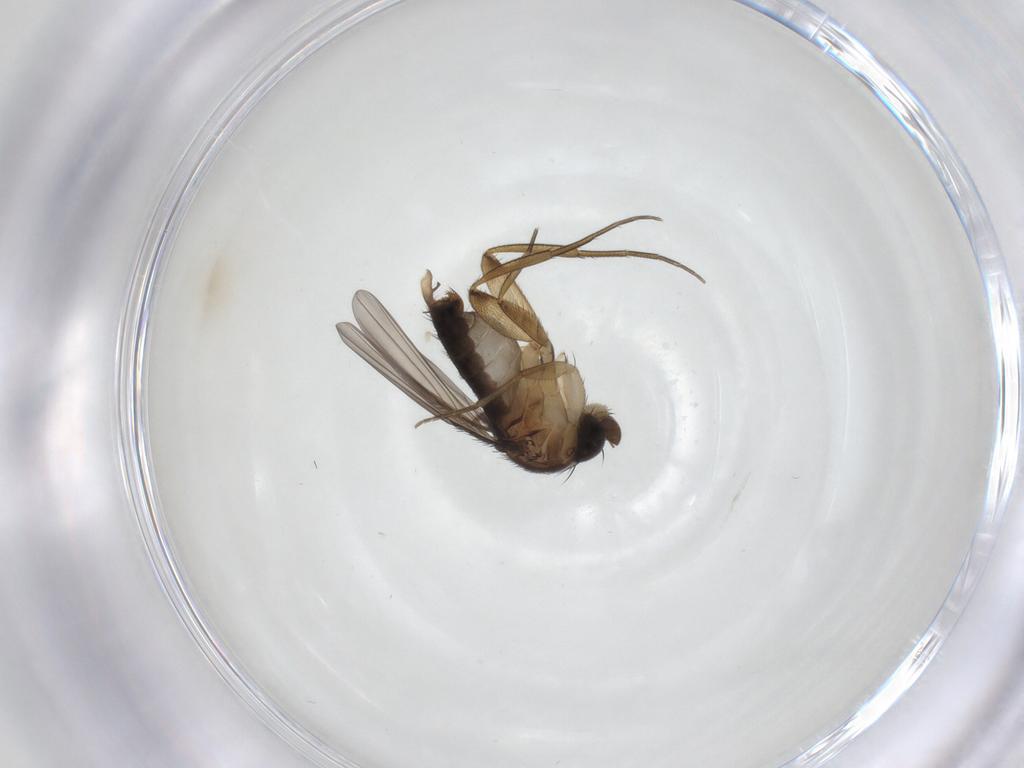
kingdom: Animalia
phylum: Arthropoda
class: Insecta
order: Diptera
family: Phoridae
